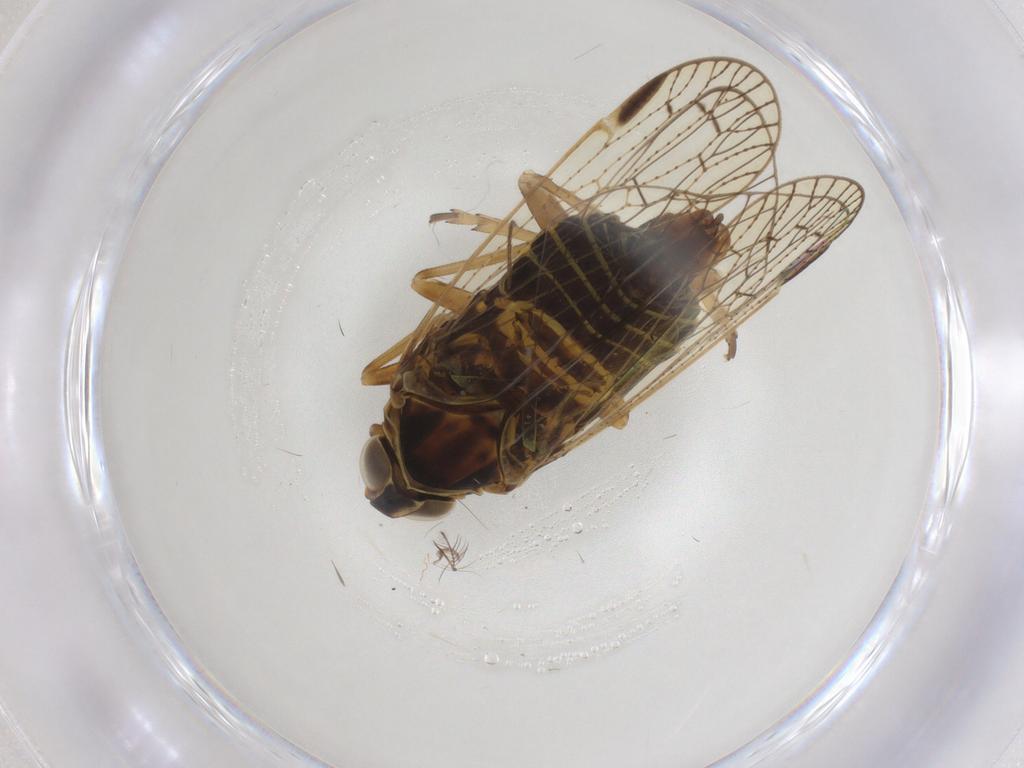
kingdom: Animalia
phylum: Arthropoda
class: Insecta
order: Hemiptera
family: Cixiidae
